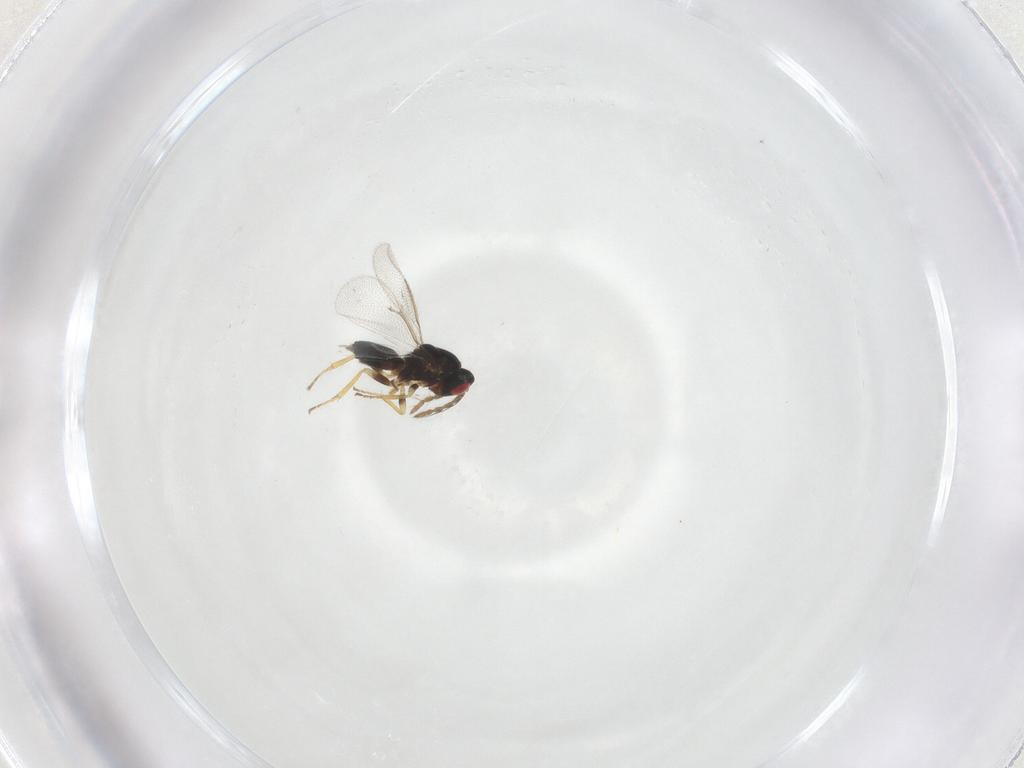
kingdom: Animalia
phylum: Arthropoda
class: Insecta
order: Hymenoptera
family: Eulophidae
